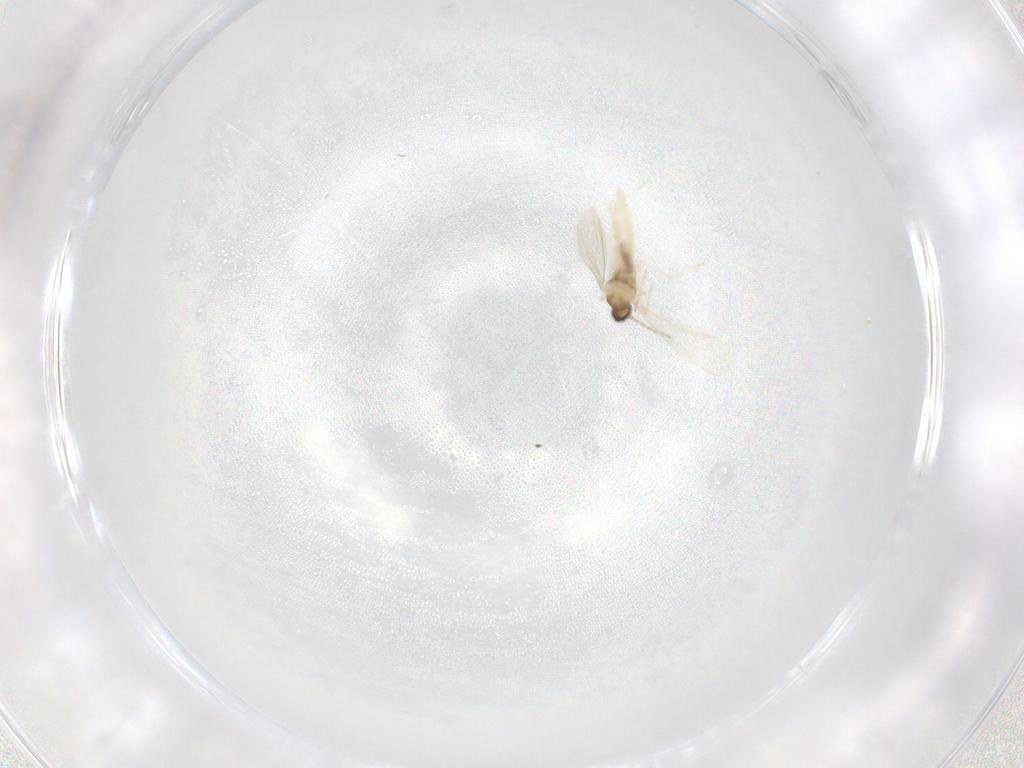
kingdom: Animalia
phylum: Arthropoda
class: Insecta
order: Diptera
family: Cecidomyiidae
